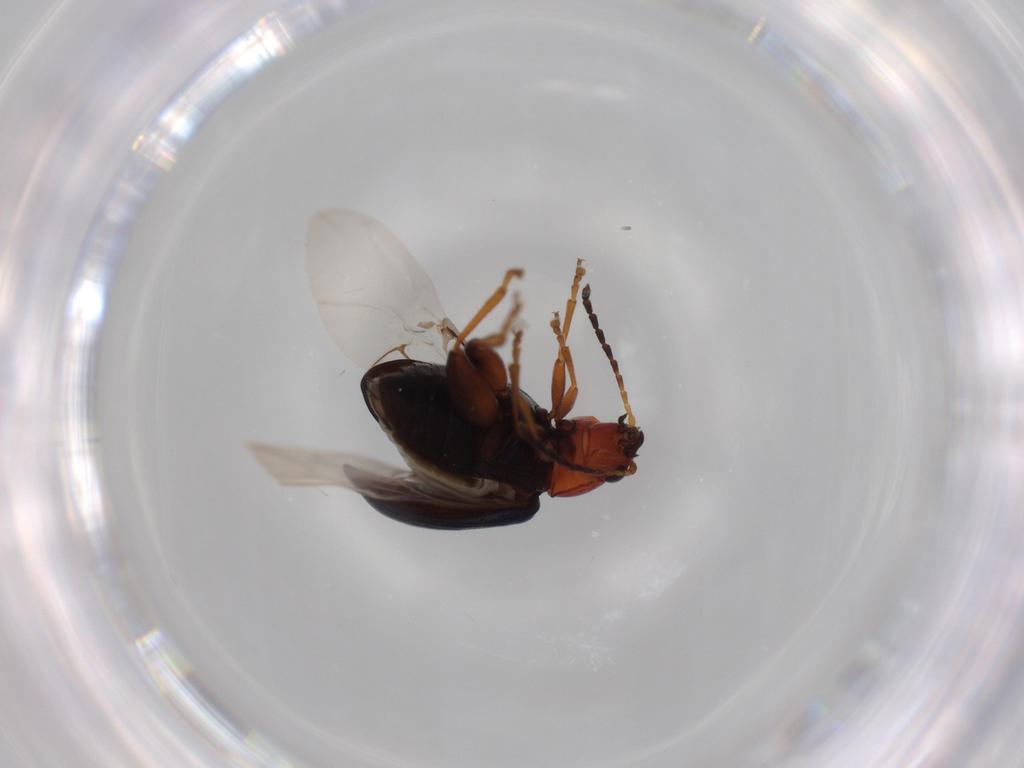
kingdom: Animalia
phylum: Arthropoda
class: Insecta
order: Coleoptera
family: Chrysomelidae
